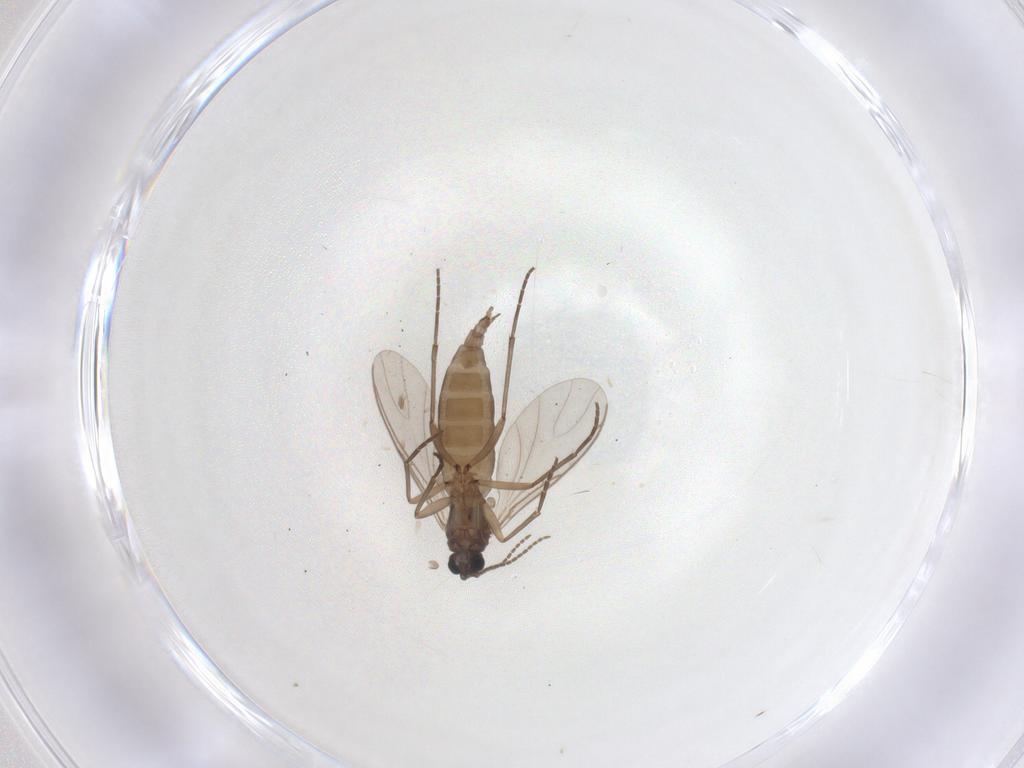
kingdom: Animalia
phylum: Arthropoda
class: Insecta
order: Diptera
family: Sciaridae
